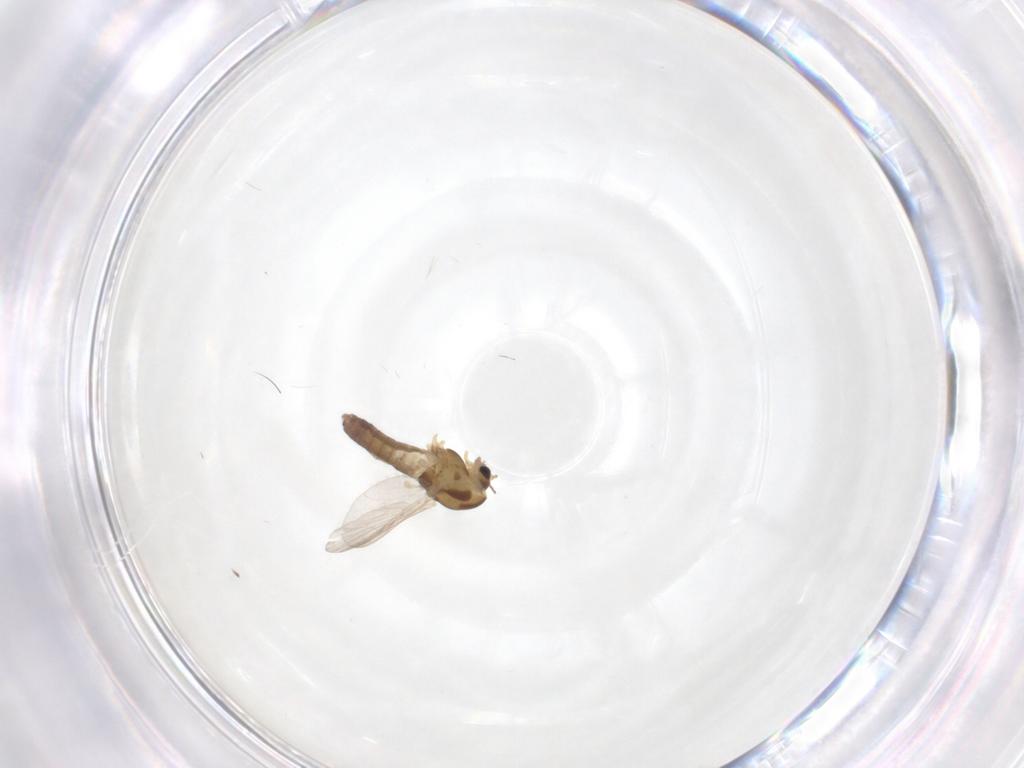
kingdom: Animalia
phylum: Arthropoda
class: Insecta
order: Diptera
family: Chironomidae
